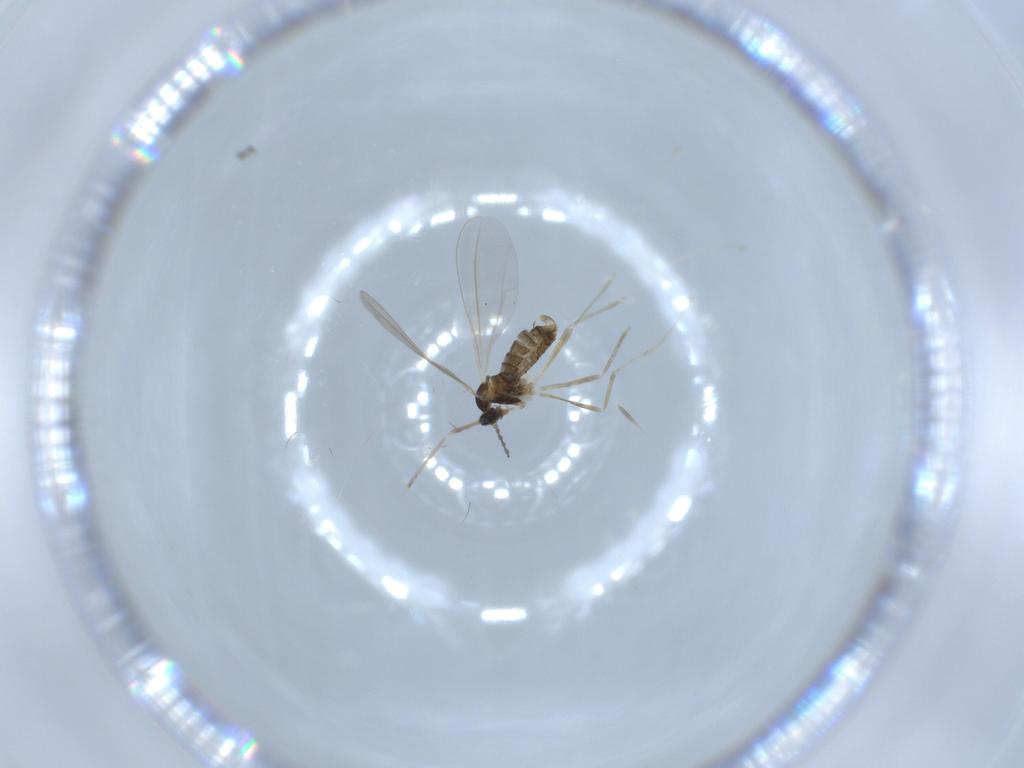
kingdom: Animalia
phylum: Arthropoda
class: Insecta
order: Diptera
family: Cecidomyiidae
